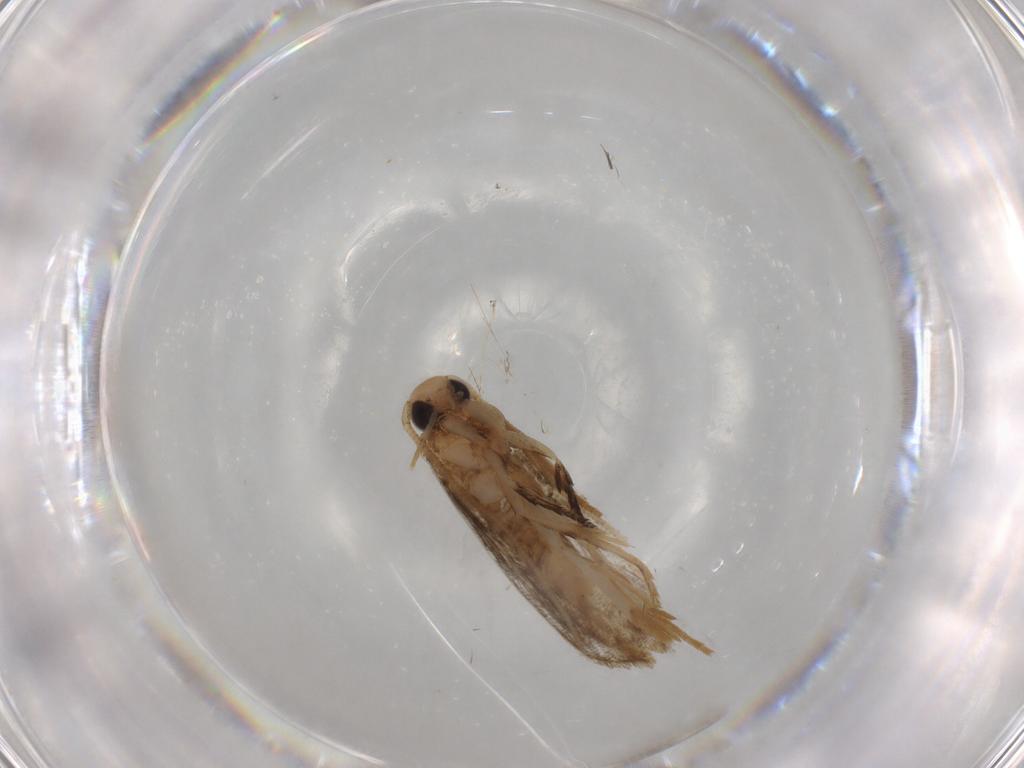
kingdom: Animalia
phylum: Arthropoda
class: Insecta
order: Lepidoptera
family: Cosmopterigidae
